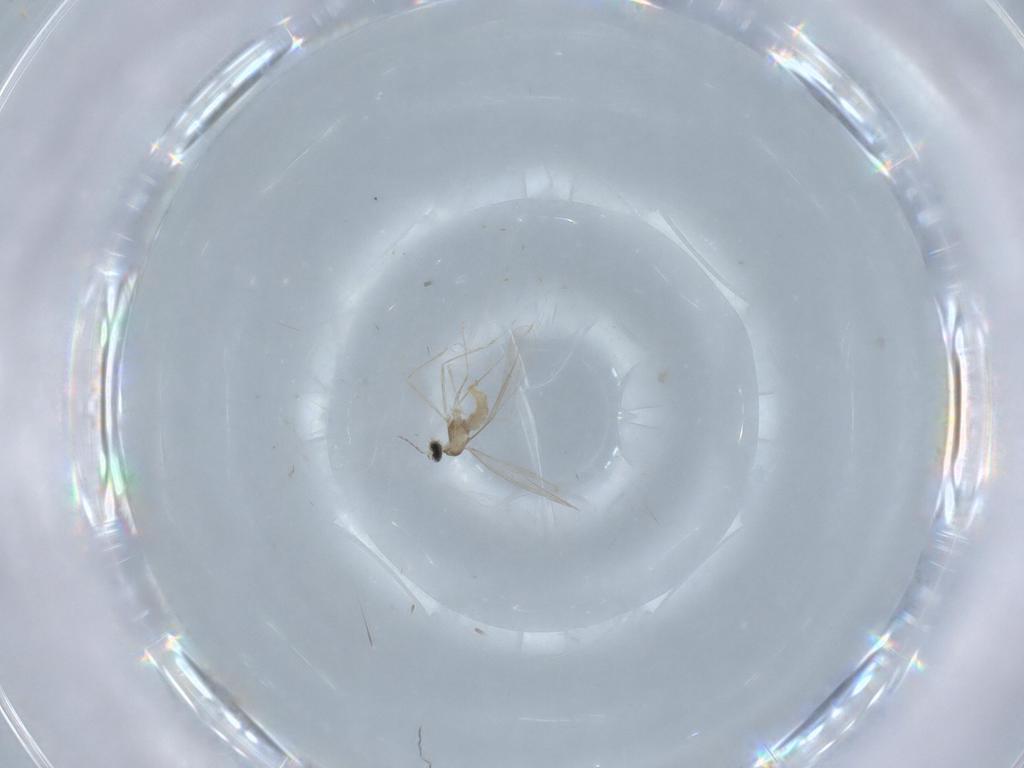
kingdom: Animalia
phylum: Arthropoda
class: Insecta
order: Diptera
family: Cecidomyiidae
